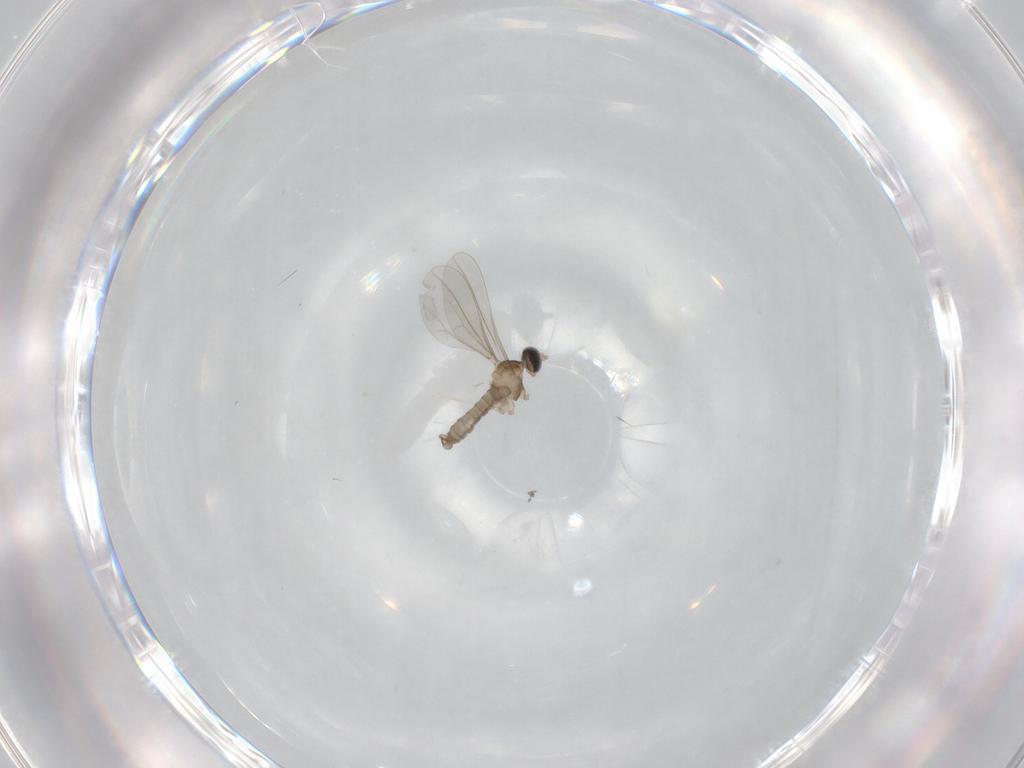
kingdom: Animalia
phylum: Arthropoda
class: Insecta
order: Diptera
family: Cecidomyiidae
